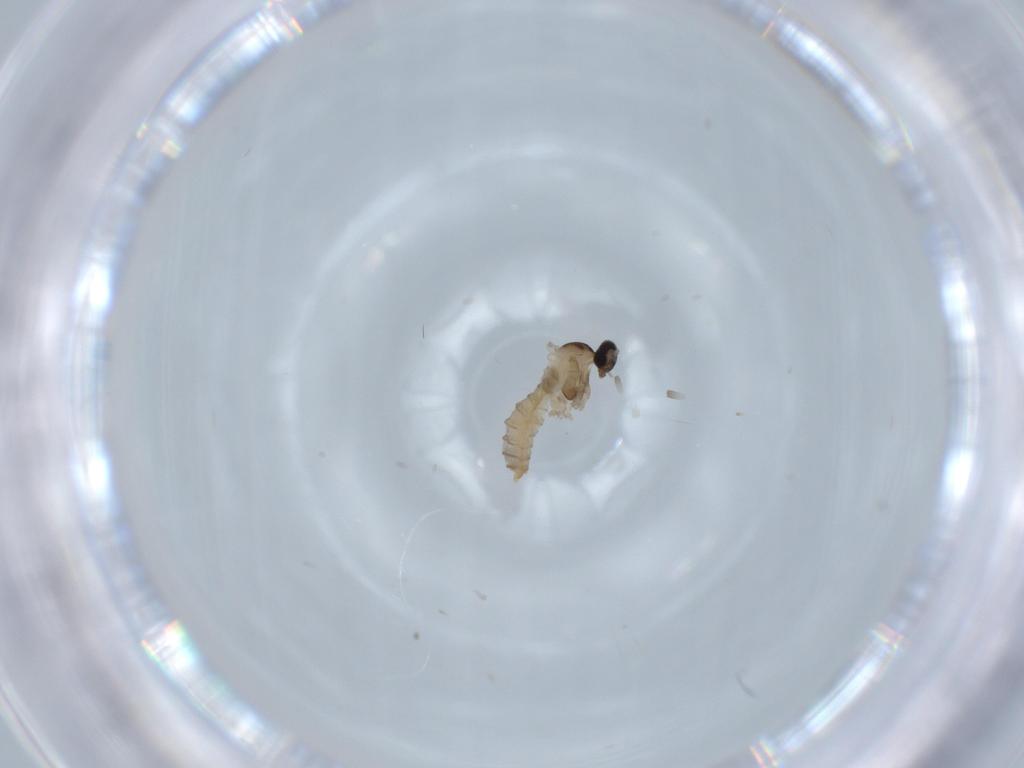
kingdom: Animalia
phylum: Arthropoda
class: Insecta
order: Diptera
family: Cecidomyiidae
